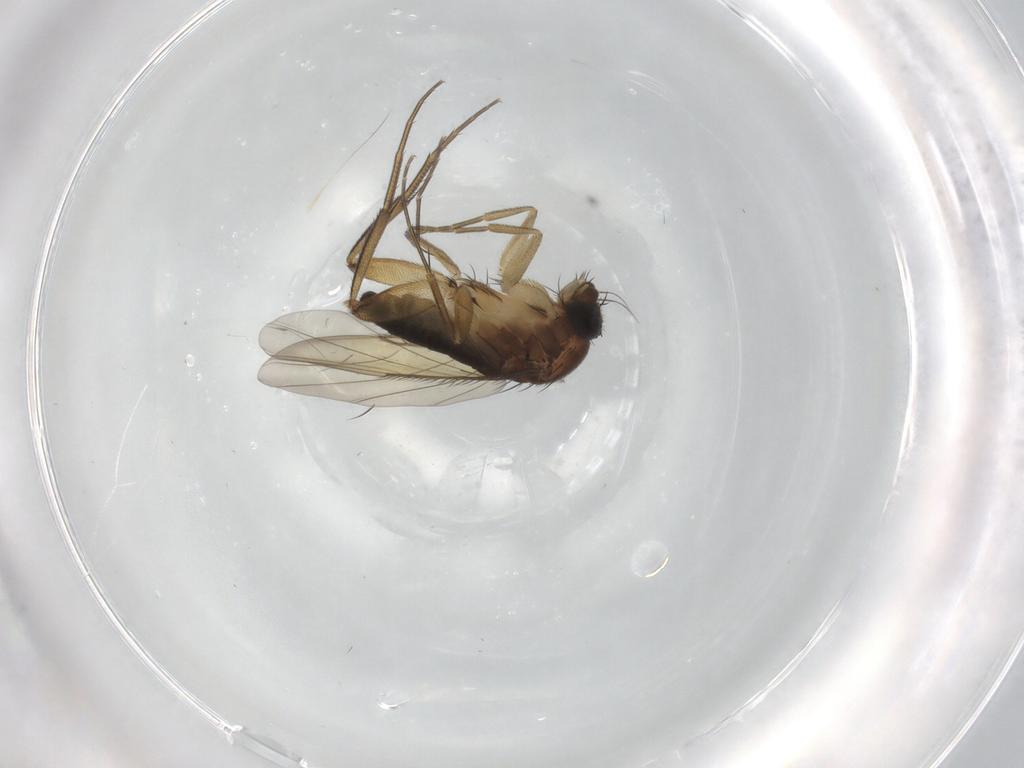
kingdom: Animalia
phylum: Arthropoda
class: Insecta
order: Diptera
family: Phoridae
